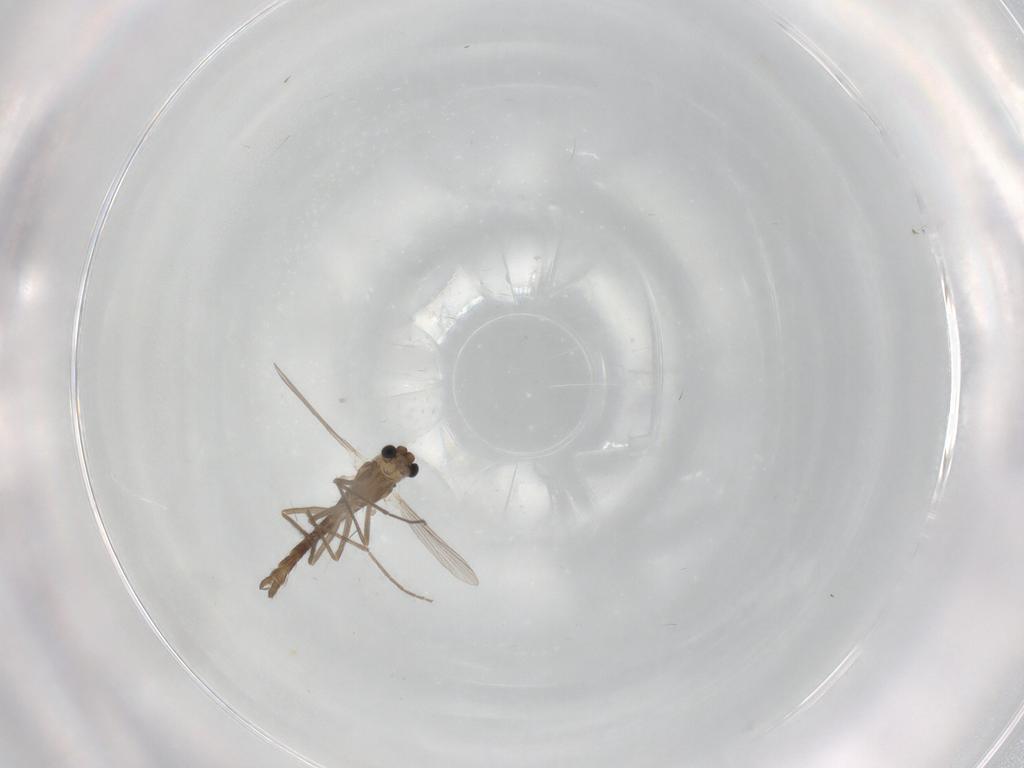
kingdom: Animalia
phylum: Arthropoda
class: Insecta
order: Diptera
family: Chironomidae
